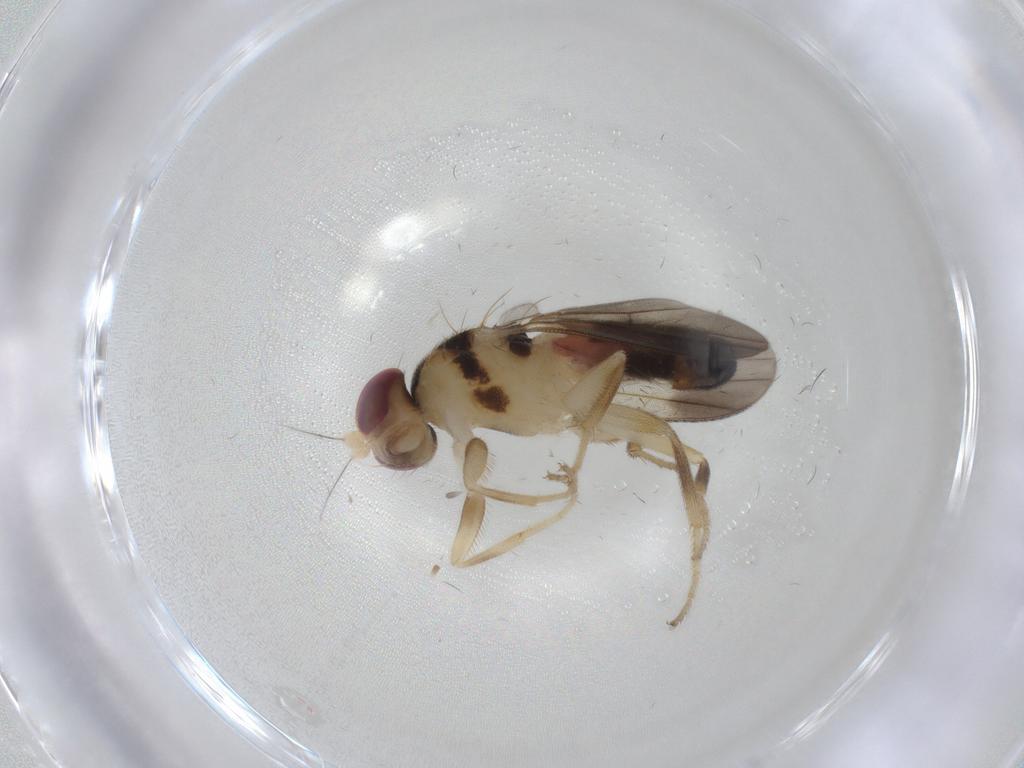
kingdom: Animalia
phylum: Arthropoda
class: Insecta
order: Diptera
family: Clusiidae
